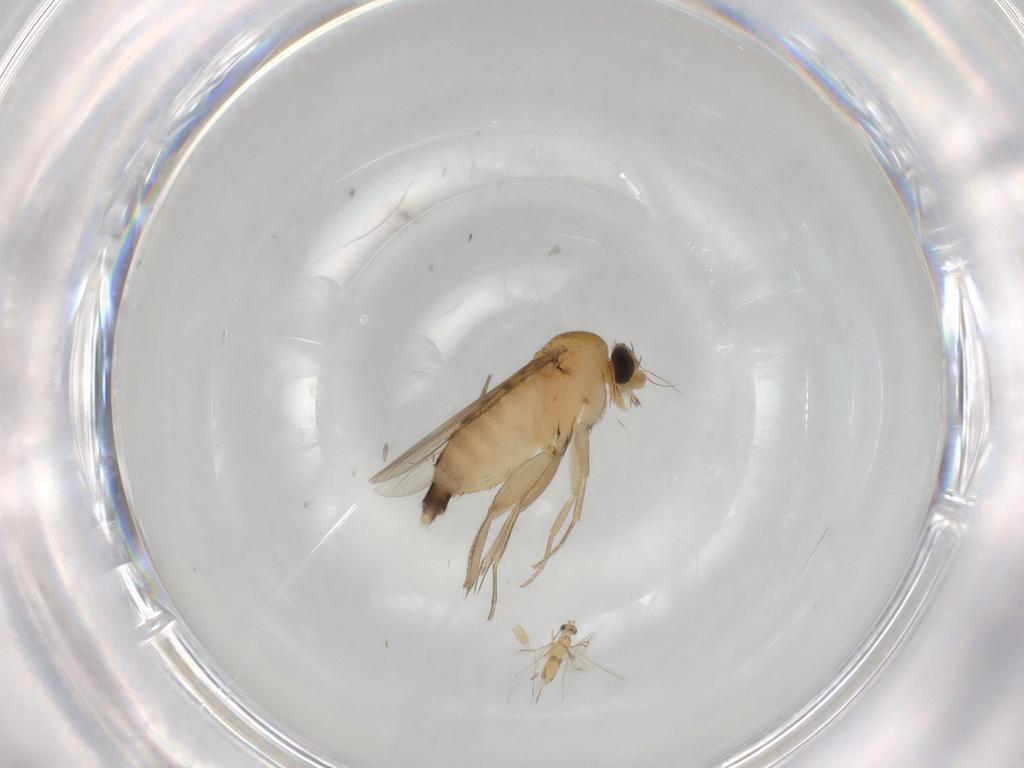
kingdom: Animalia
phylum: Arthropoda
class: Insecta
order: Diptera
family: Phoridae
